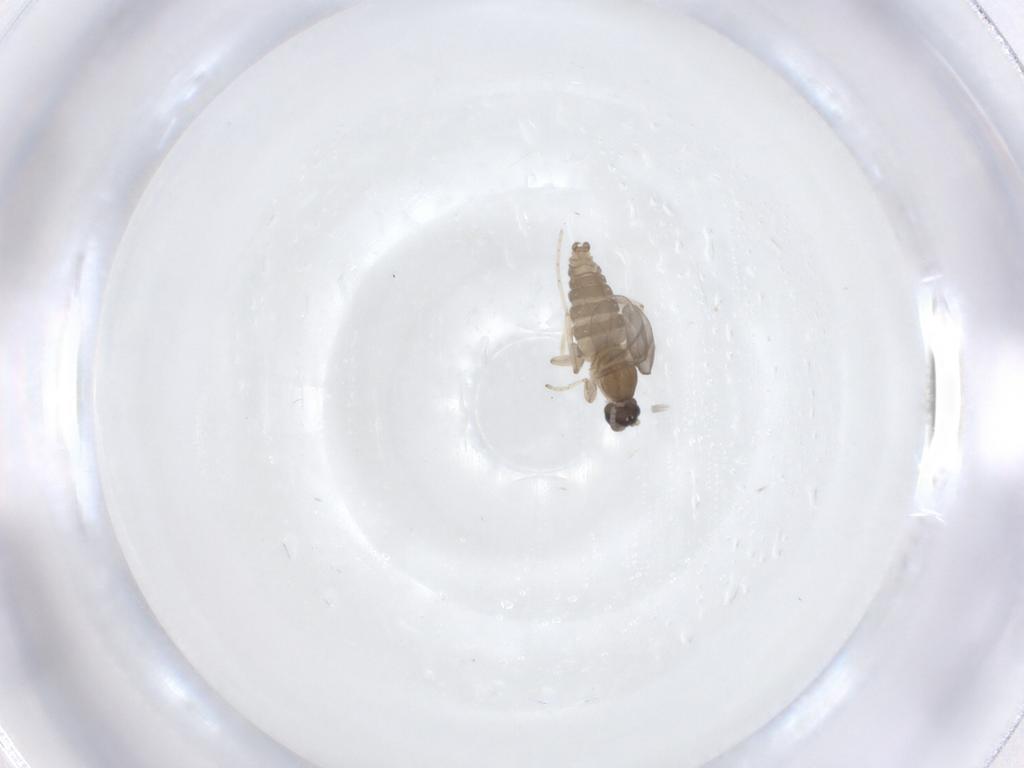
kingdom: Animalia
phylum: Arthropoda
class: Insecta
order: Diptera
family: Cecidomyiidae
